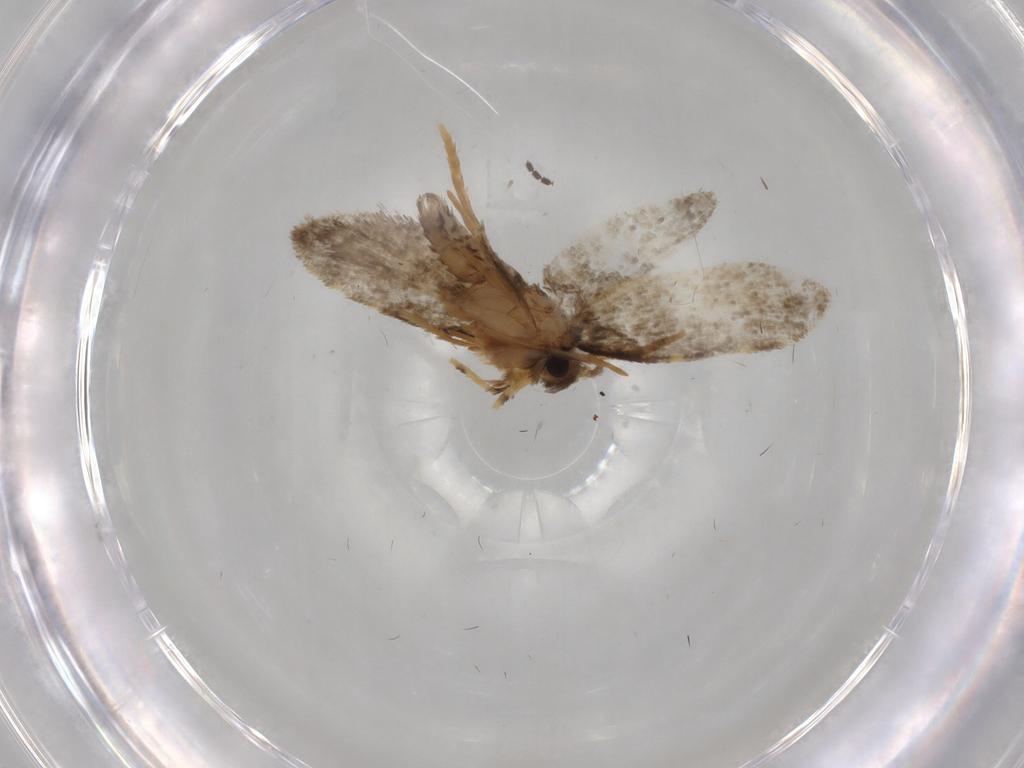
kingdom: Animalia
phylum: Arthropoda
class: Insecta
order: Lepidoptera
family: Psychidae
